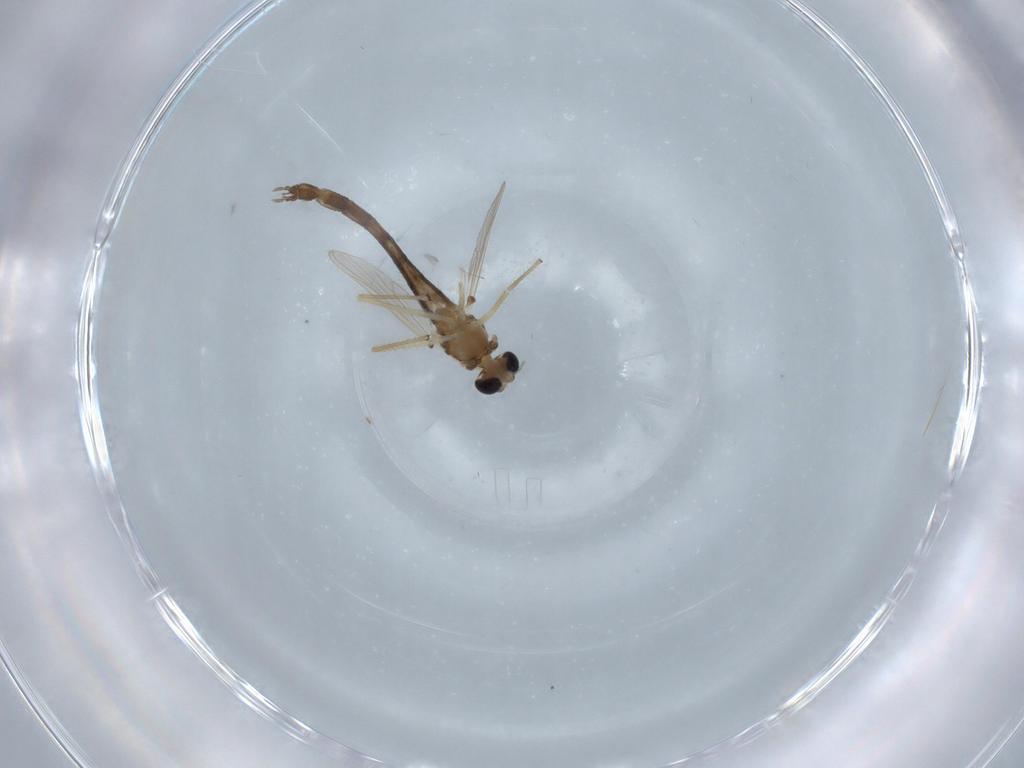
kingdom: Animalia
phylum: Arthropoda
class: Insecta
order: Diptera
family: Chironomidae
